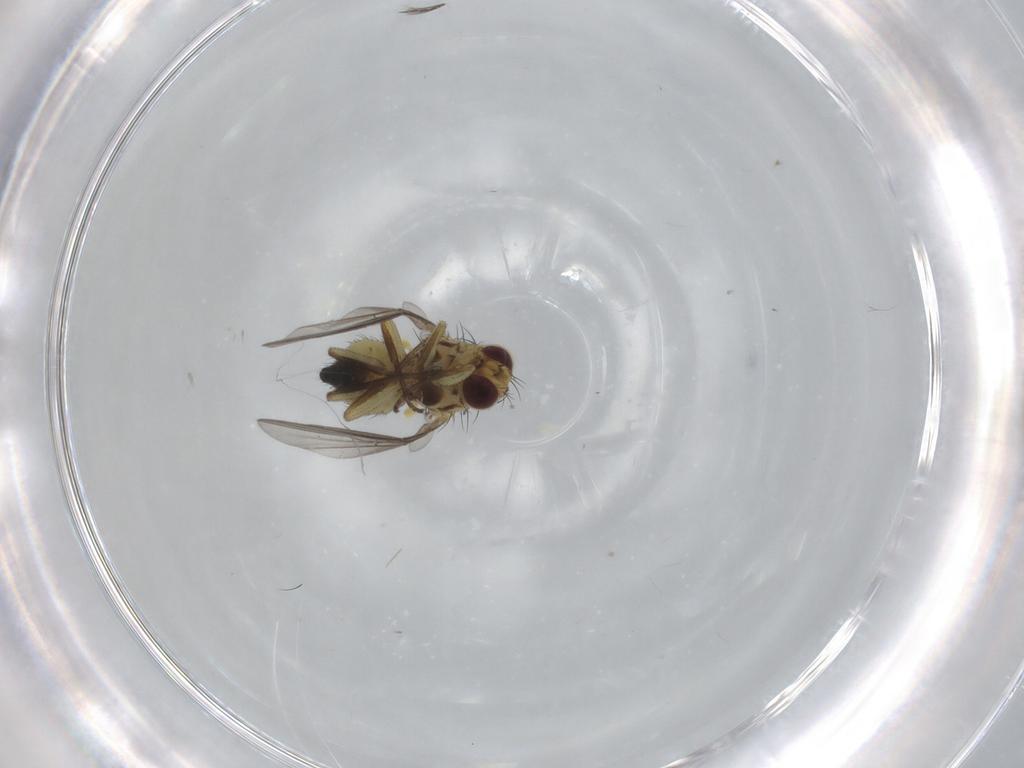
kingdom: Animalia
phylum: Arthropoda
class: Insecta
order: Diptera
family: Agromyzidae
